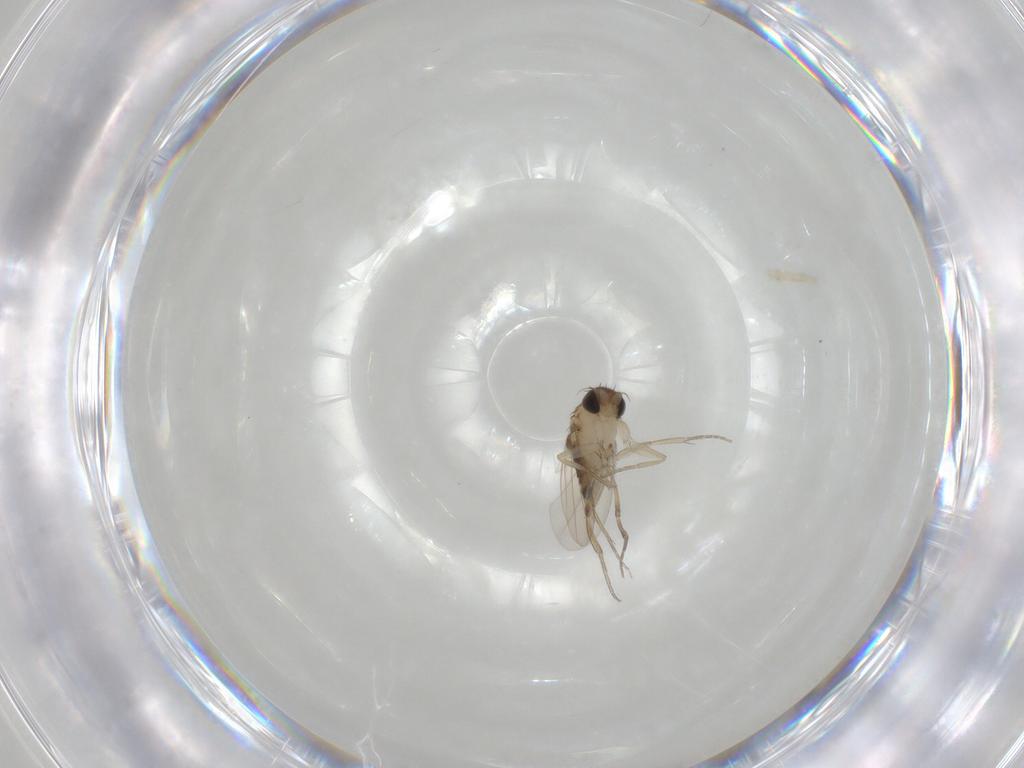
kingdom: Animalia
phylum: Arthropoda
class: Insecta
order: Diptera
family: Phoridae
